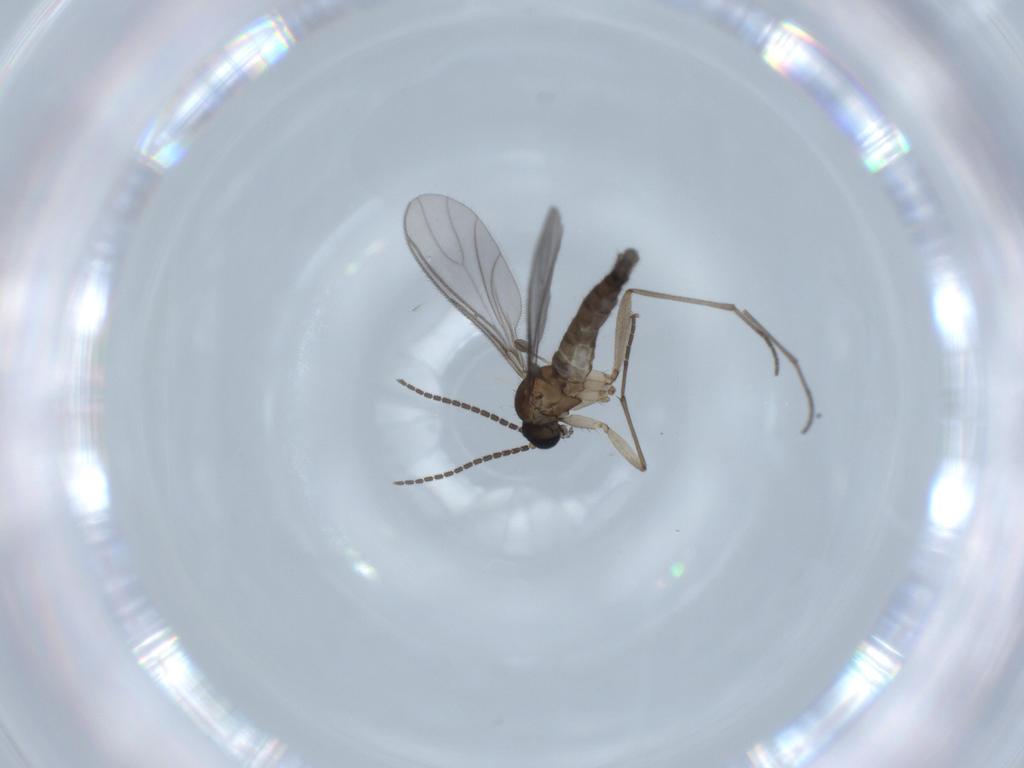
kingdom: Animalia
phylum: Arthropoda
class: Insecta
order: Diptera
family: Sciaridae
